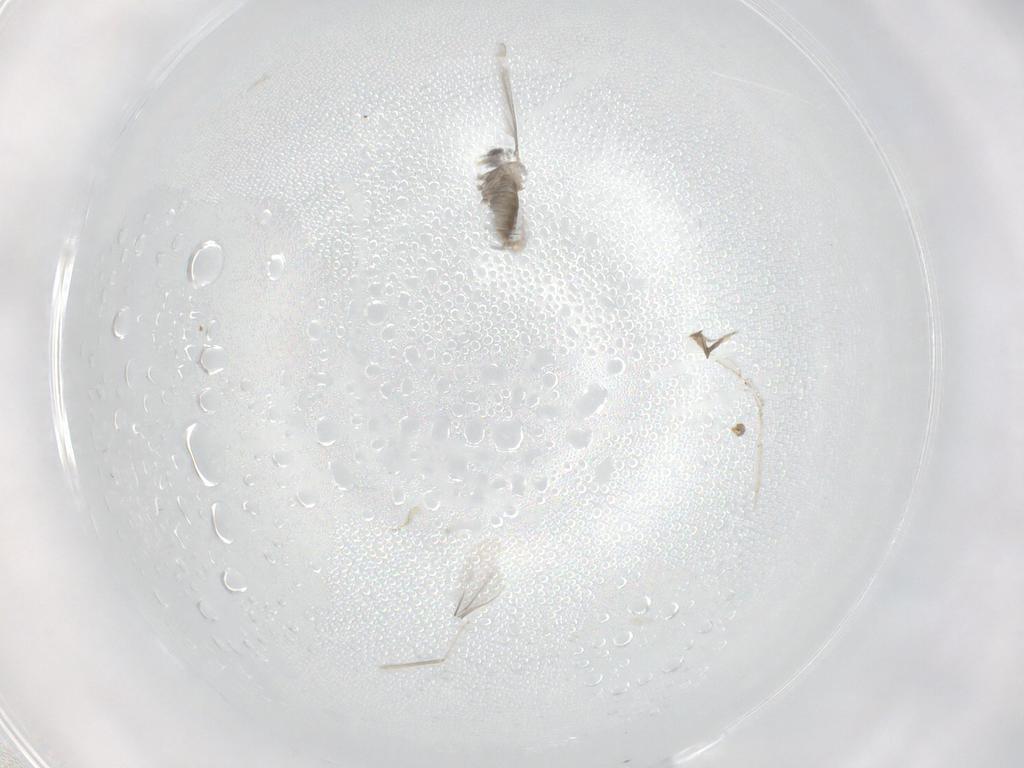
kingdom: Animalia
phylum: Arthropoda
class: Insecta
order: Diptera
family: Cecidomyiidae
